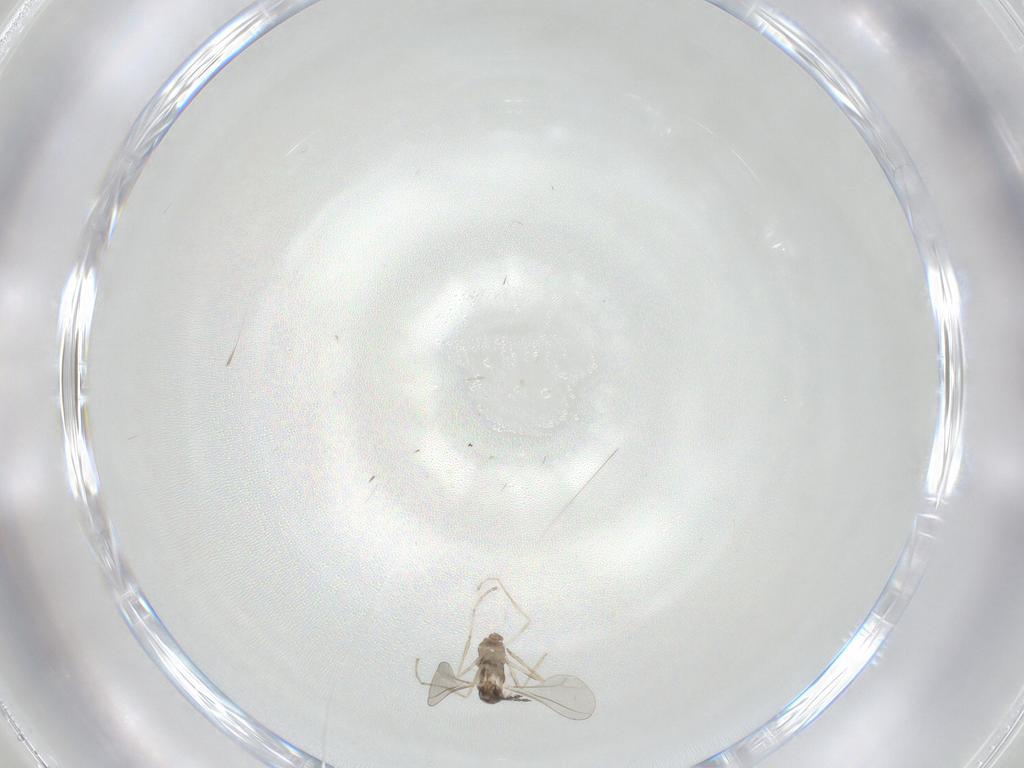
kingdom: Animalia
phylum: Arthropoda
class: Insecta
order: Diptera
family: Cecidomyiidae
